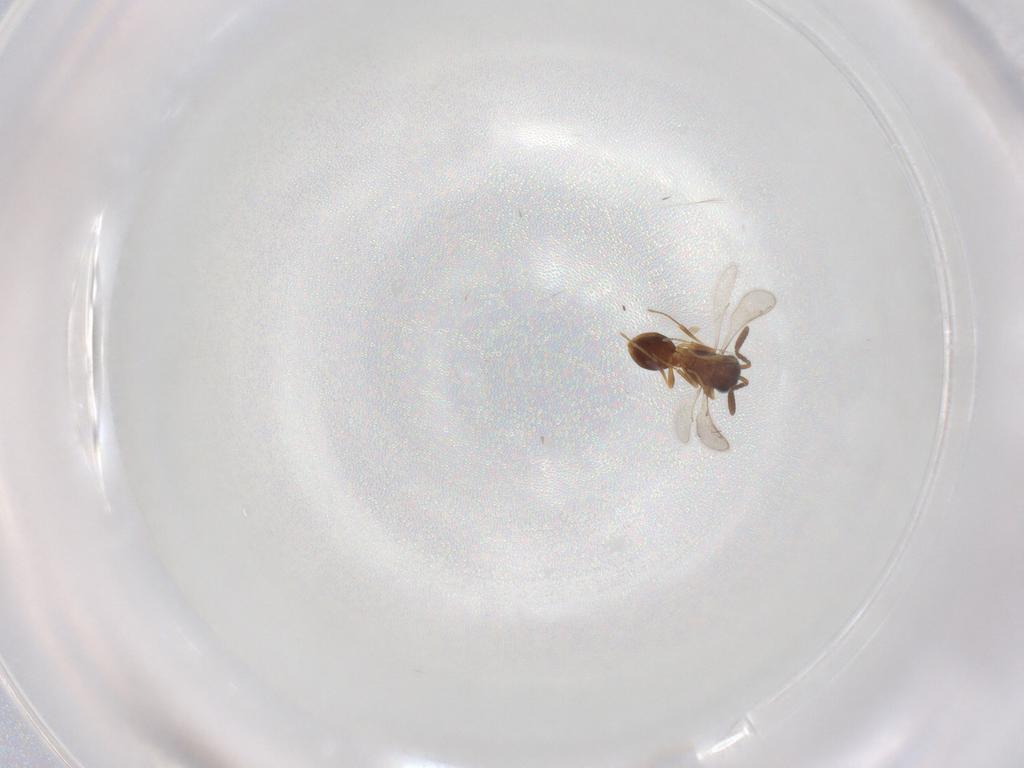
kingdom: Animalia
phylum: Arthropoda
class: Insecta
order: Hymenoptera
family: Scelionidae
